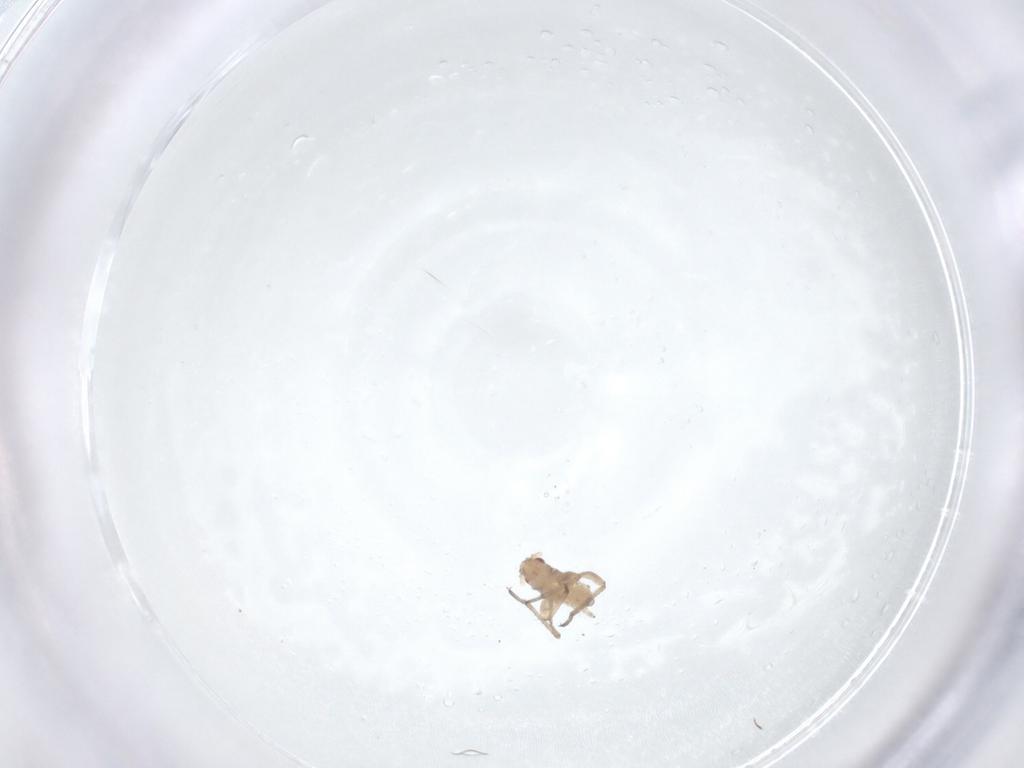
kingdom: Animalia
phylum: Arthropoda
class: Insecta
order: Hemiptera
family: Aphididae
